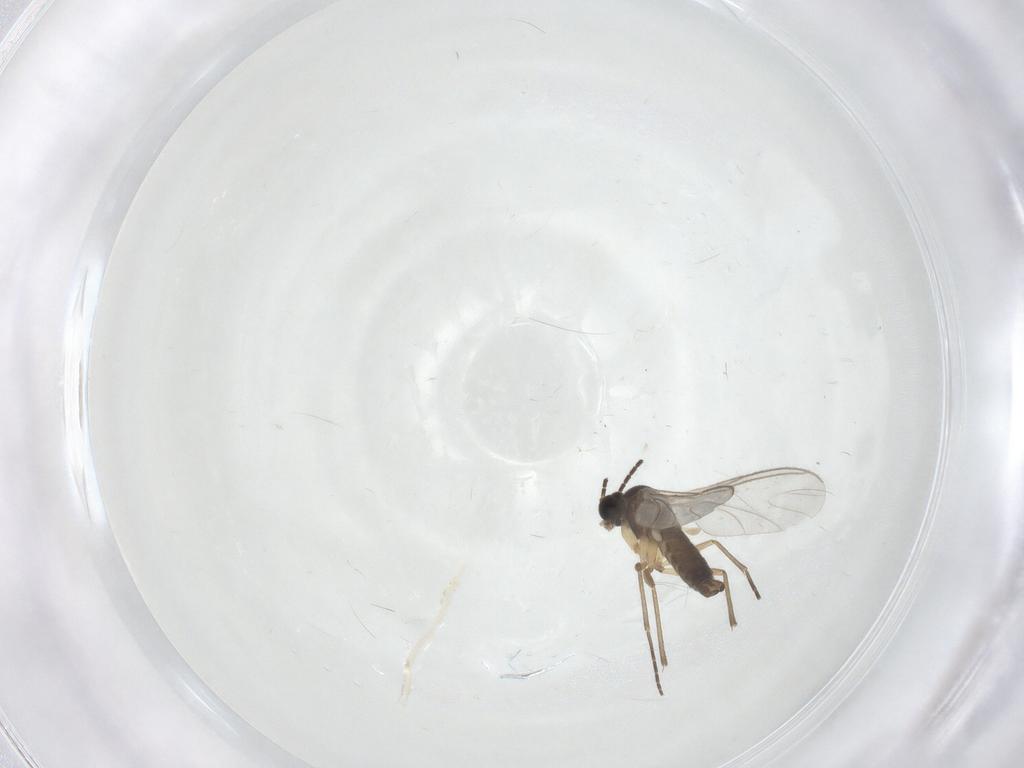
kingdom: Animalia
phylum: Arthropoda
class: Insecta
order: Diptera
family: Sciaridae
